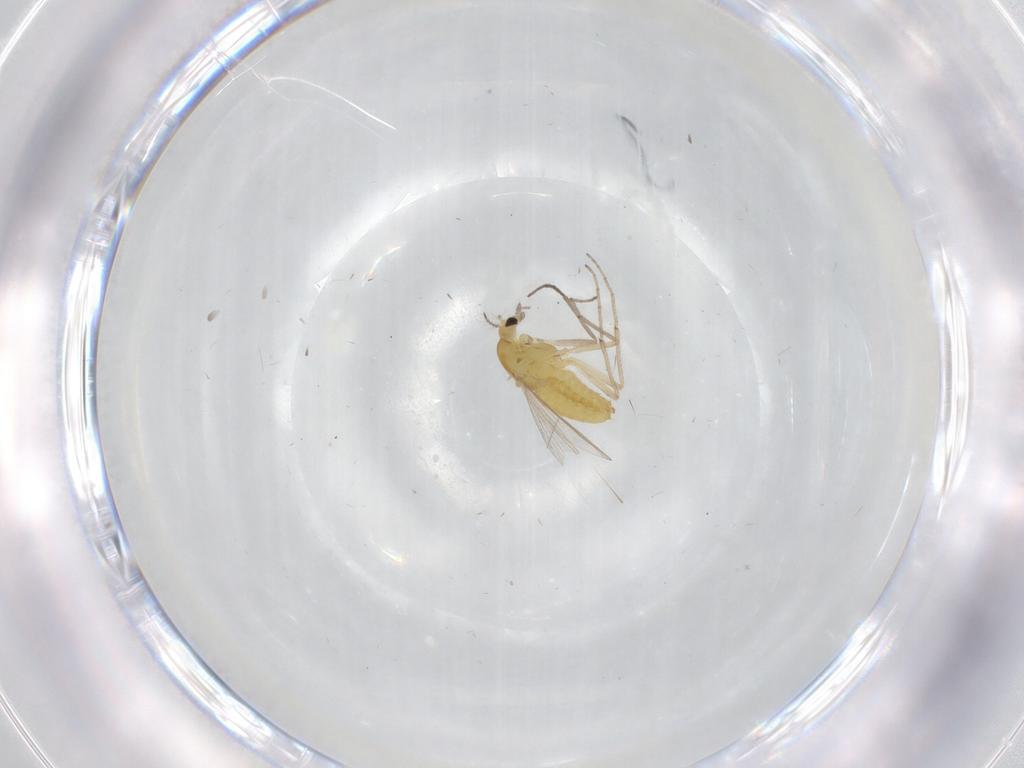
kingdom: Animalia
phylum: Arthropoda
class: Insecta
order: Diptera
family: Chironomidae
